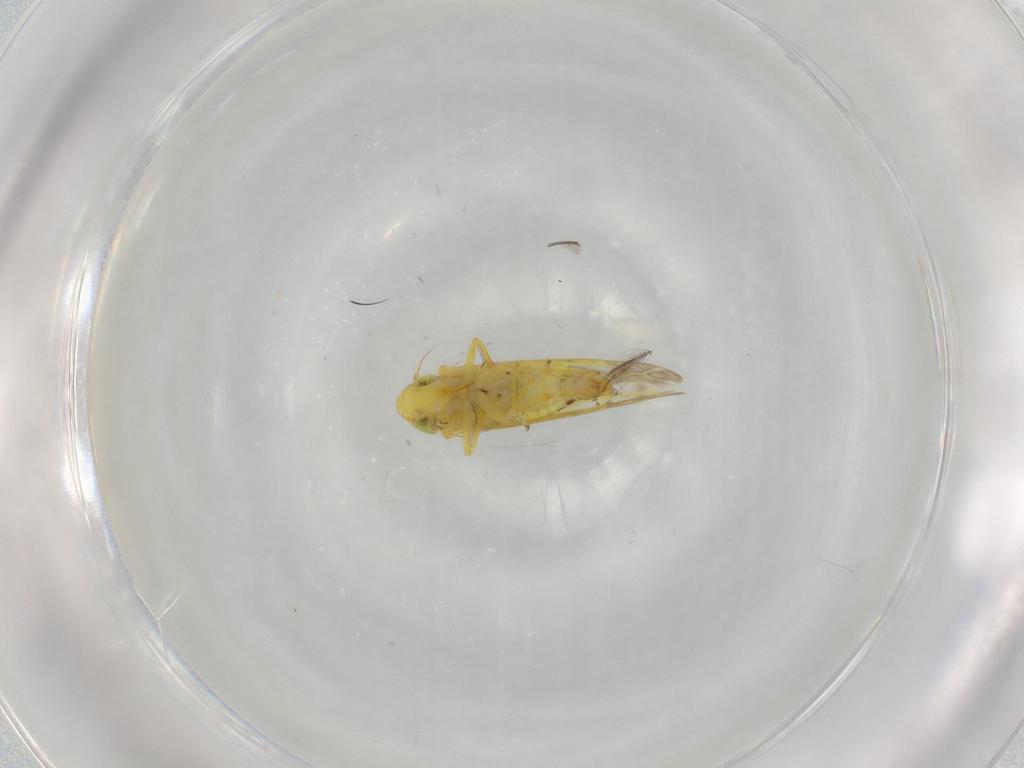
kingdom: Animalia
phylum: Arthropoda
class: Insecta
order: Hemiptera
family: Cicadellidae
